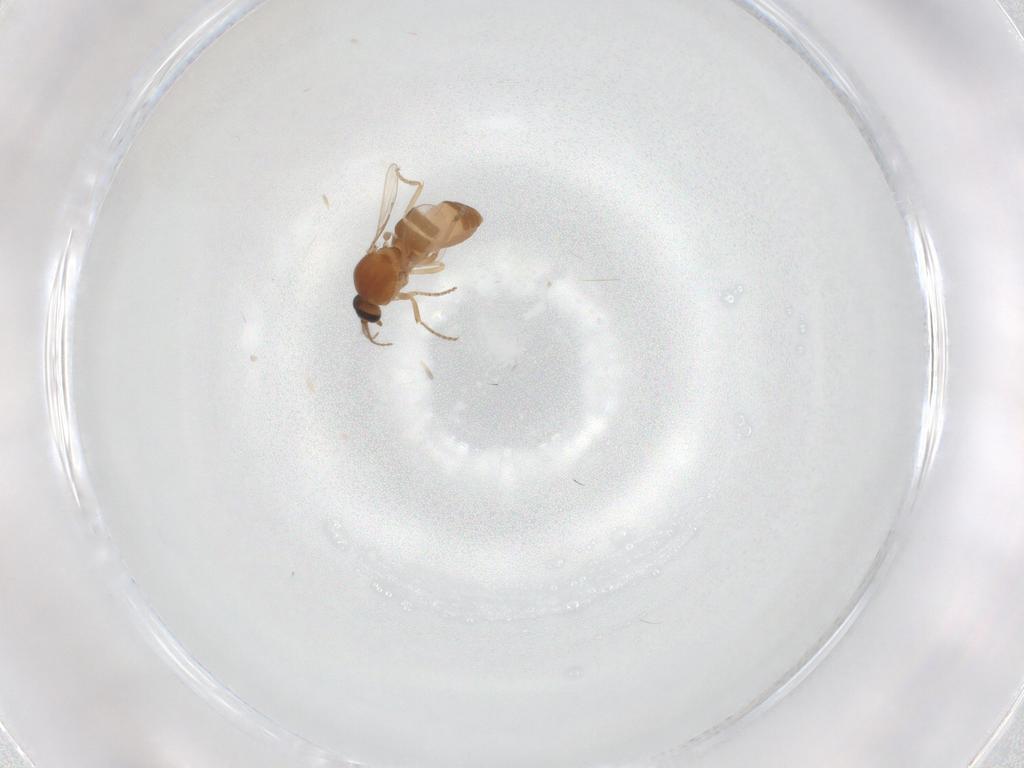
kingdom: Animalia
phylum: Arthropoda
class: Insecta
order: Diptera
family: Ceratopogonidae
